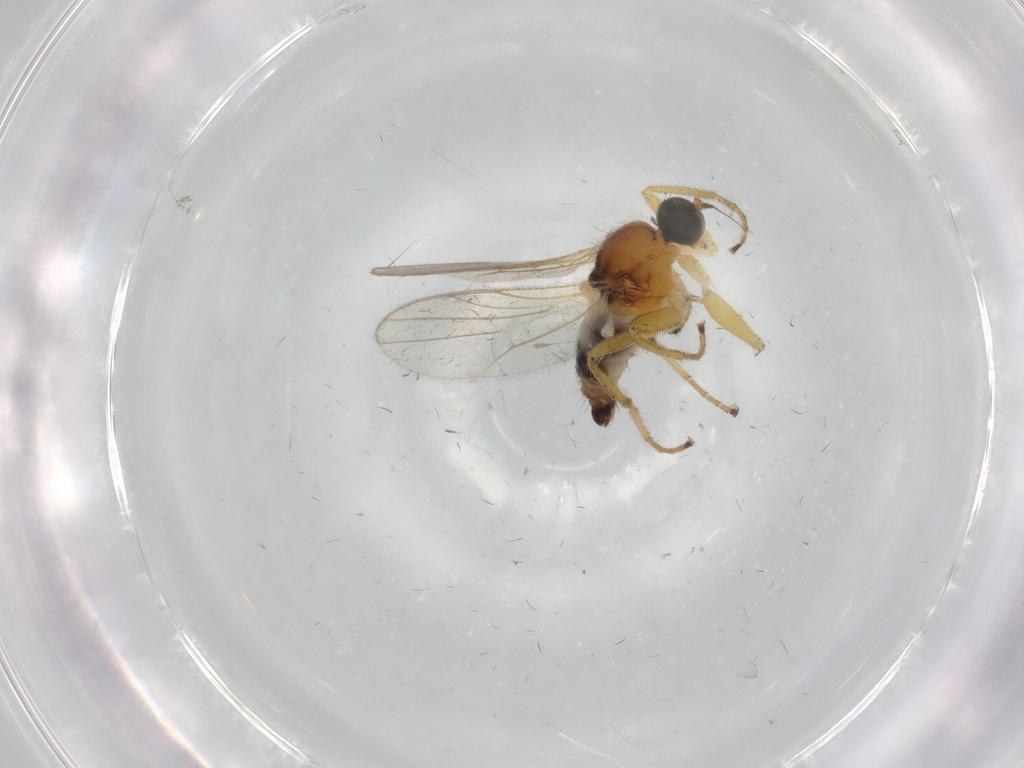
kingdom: Animalia
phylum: Arthropoda
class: Insecta
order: Diptera
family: Hybotidae
